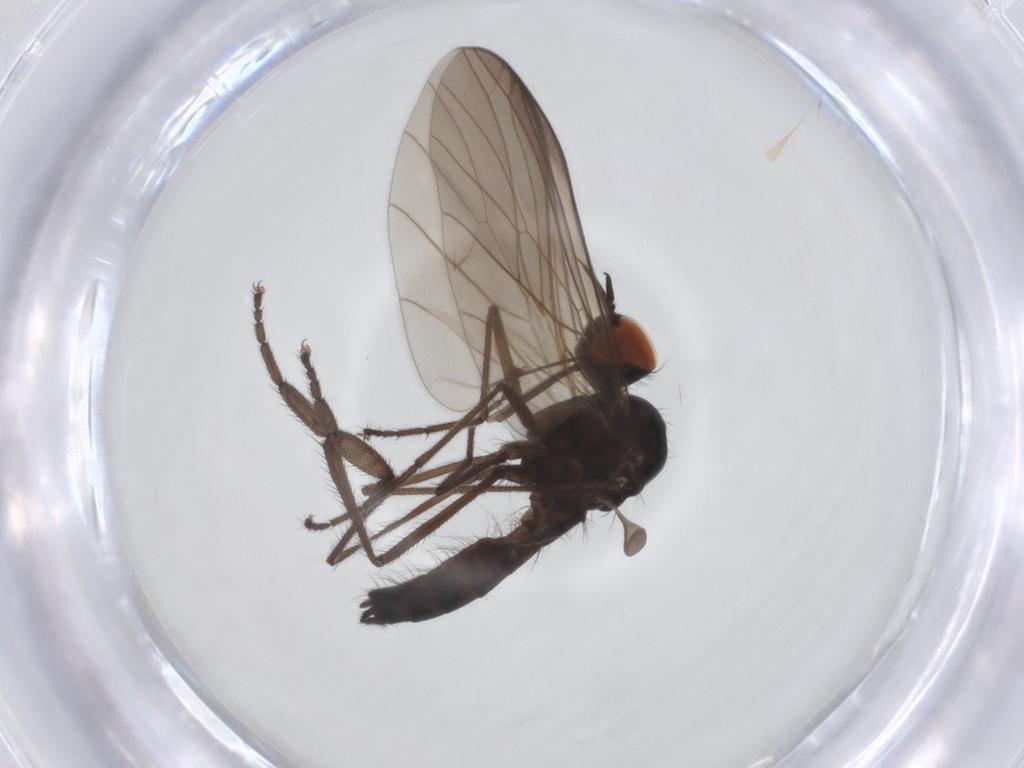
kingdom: Animalia
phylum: Arthropoda
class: Insecta
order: Diptera
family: Empididae
